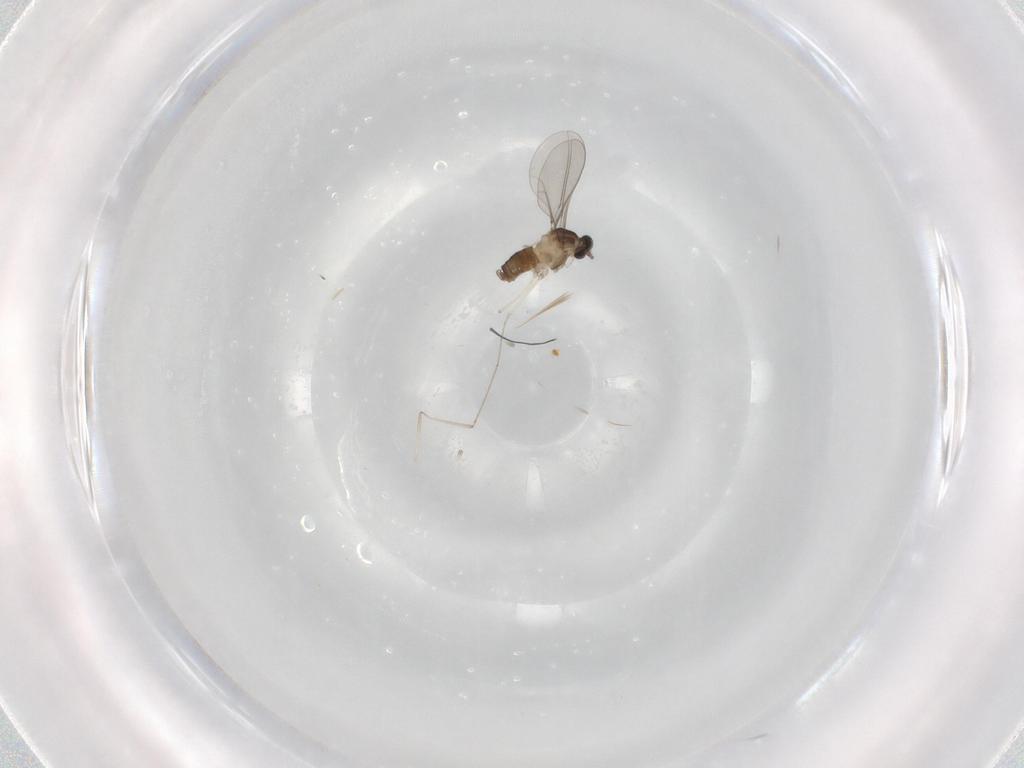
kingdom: Animalia
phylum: Arthropoda
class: Insecta
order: Diptera
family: Cecidomyiidae
